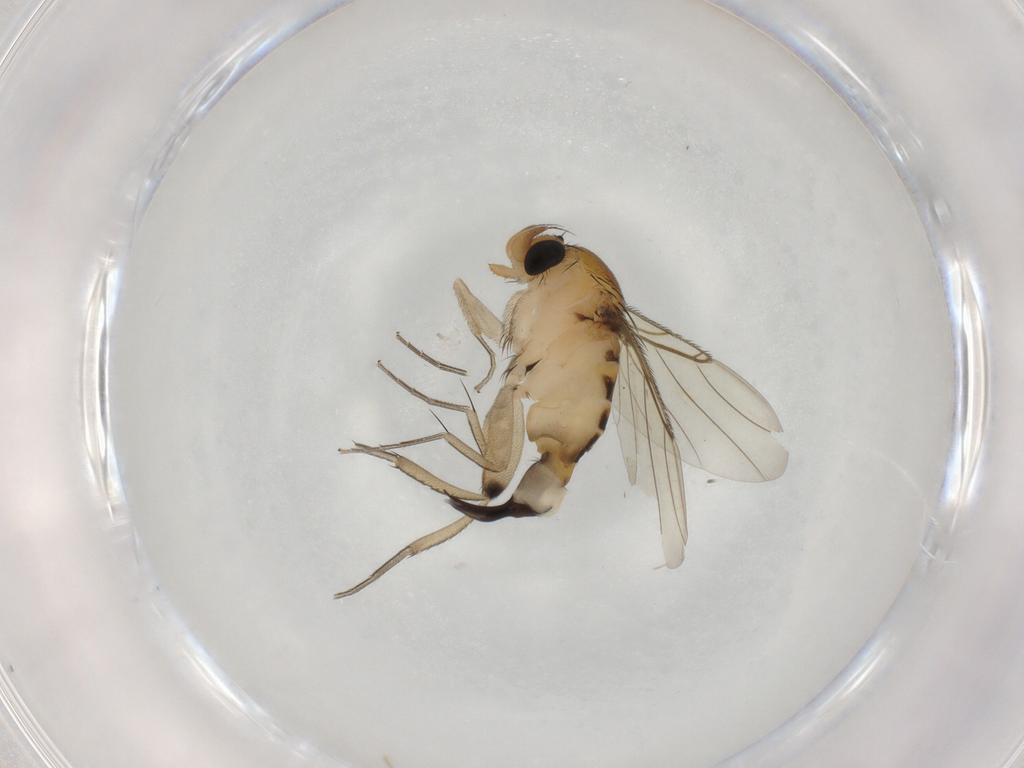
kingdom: Animalia
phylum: Arthropoda
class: Insecta
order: Diptera
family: Phoridae
